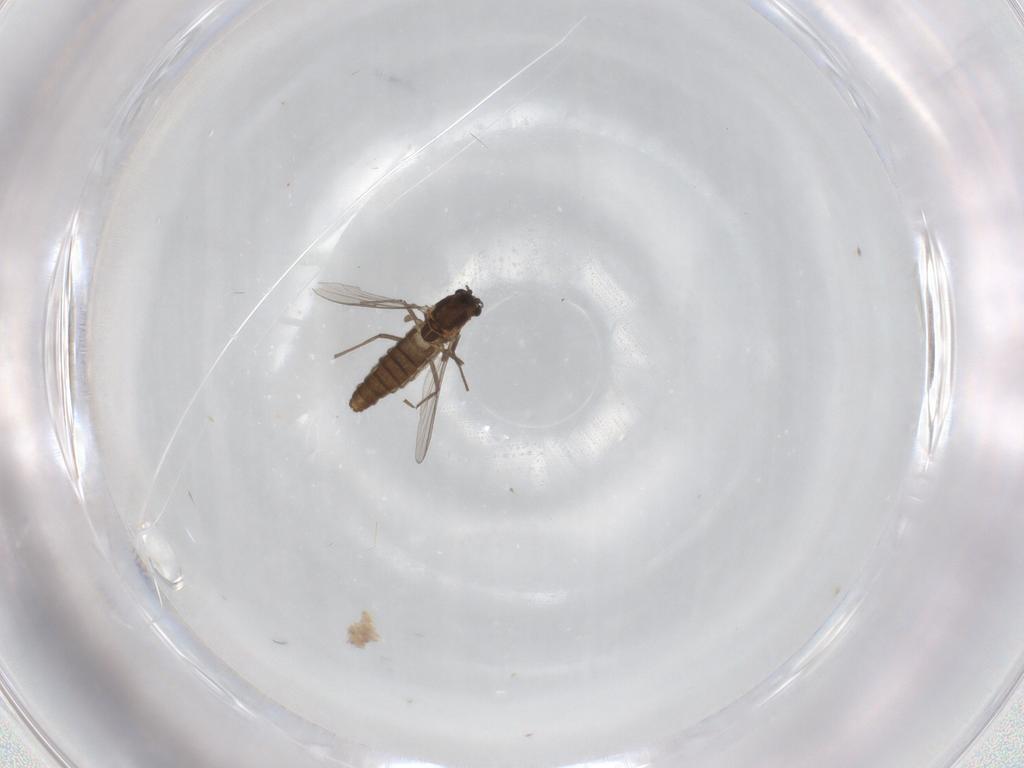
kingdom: Animalia
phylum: Arthropoda
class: Insecta
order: Diptera
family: Chironomidae
